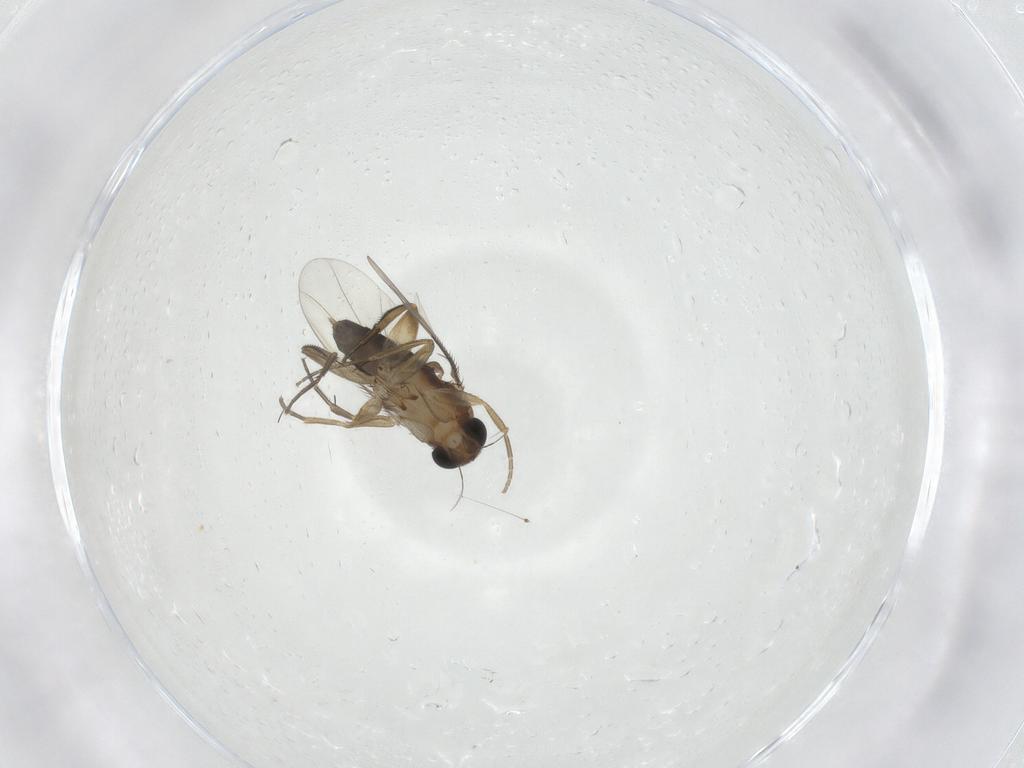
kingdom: Animalia
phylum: Arthropoda
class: Insecta
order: Diptera
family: Phoridae
